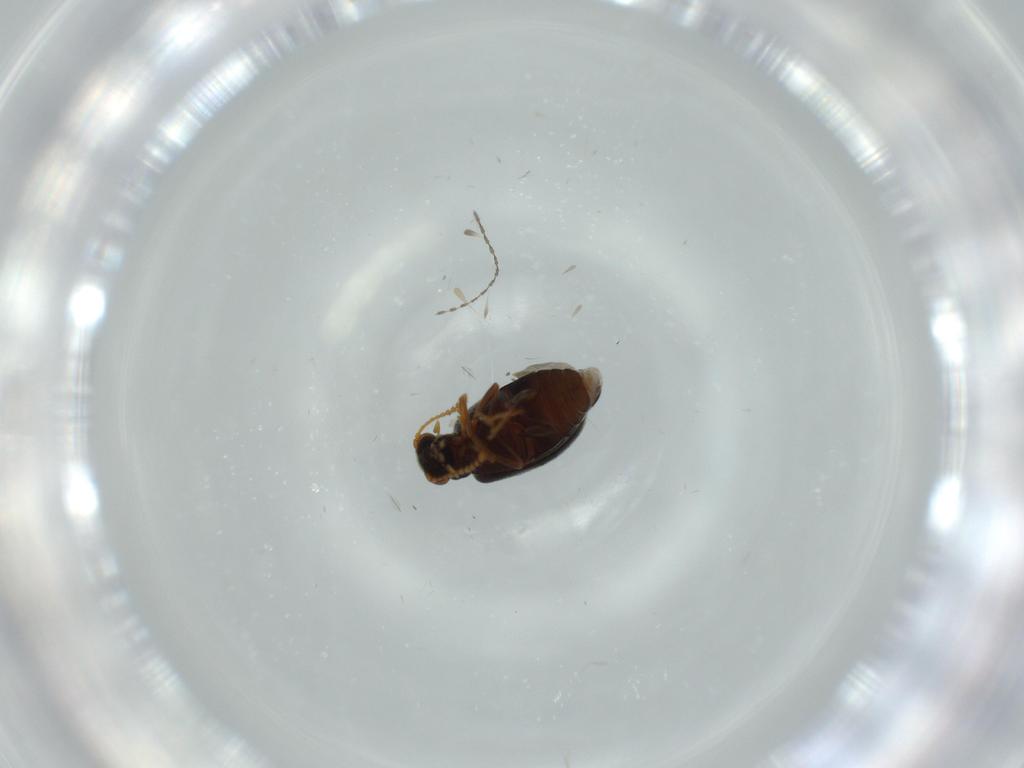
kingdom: Animalia
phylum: Arthropoda
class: Insecta
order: Coleoptera
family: Aderidae
